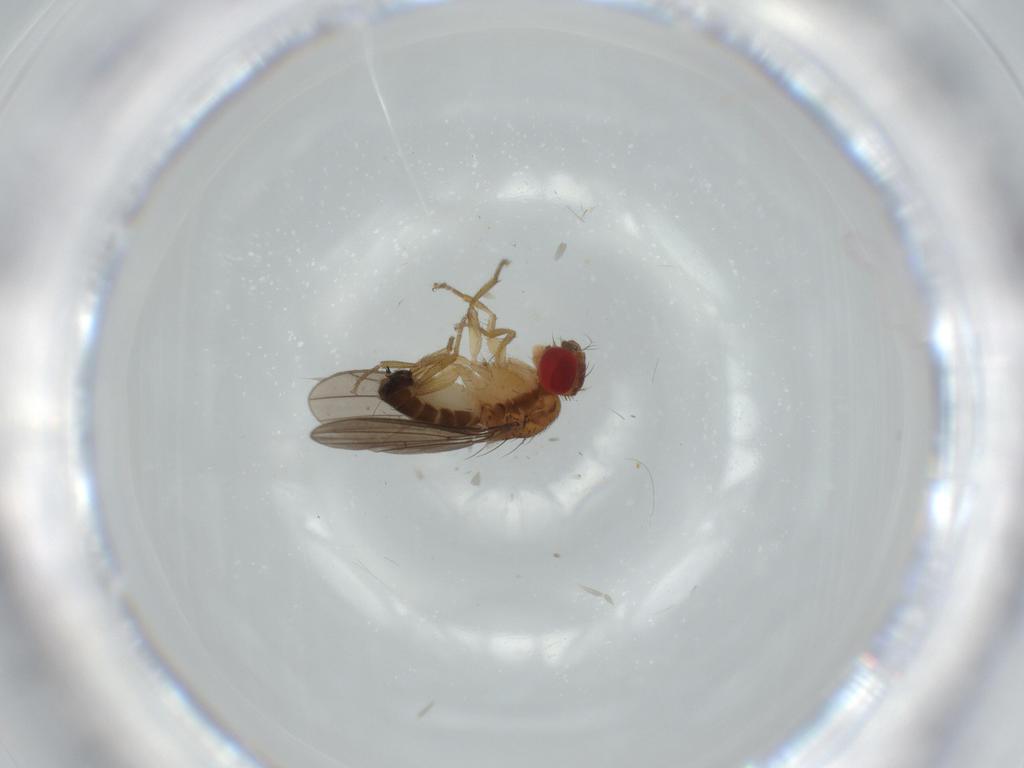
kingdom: Animalia
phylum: Arthropoda
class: Insecta
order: Diptera
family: Drosophilidae
